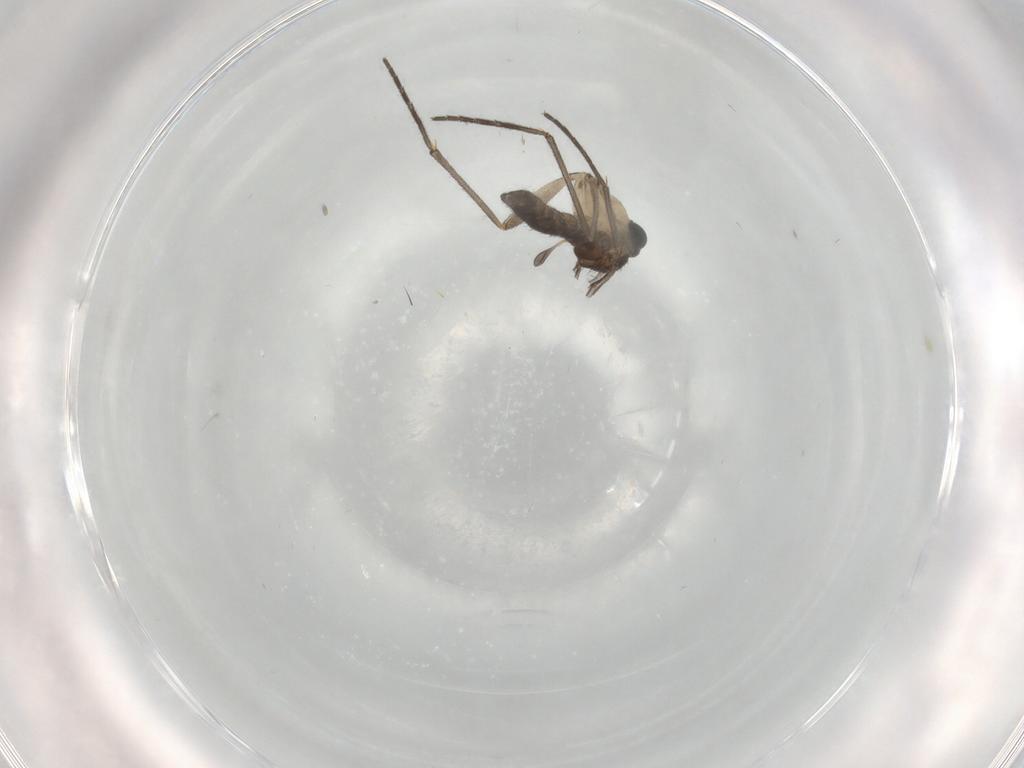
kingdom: Animalia
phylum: Arthropoda
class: Insecta
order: Diptera
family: Sciaridae
